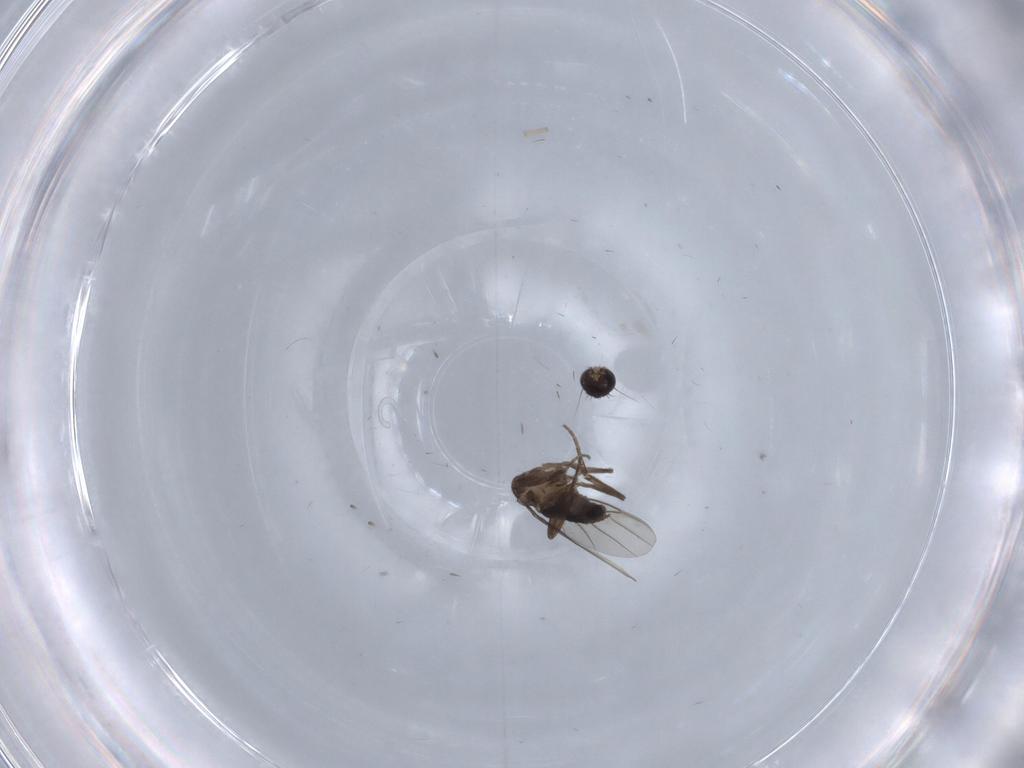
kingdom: Animalia
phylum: Arthropoda
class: Insecta
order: Diptera
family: Phoridae
